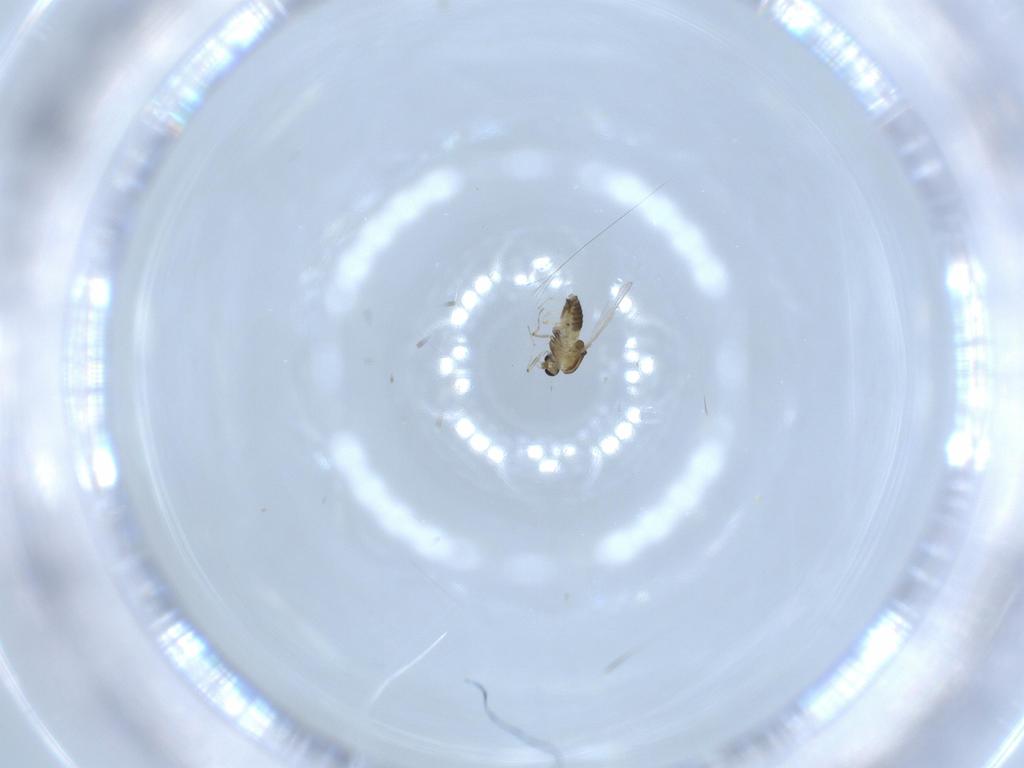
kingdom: Animalia
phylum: Arthropoda
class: Insecta
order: Diptera
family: Chironomidae
